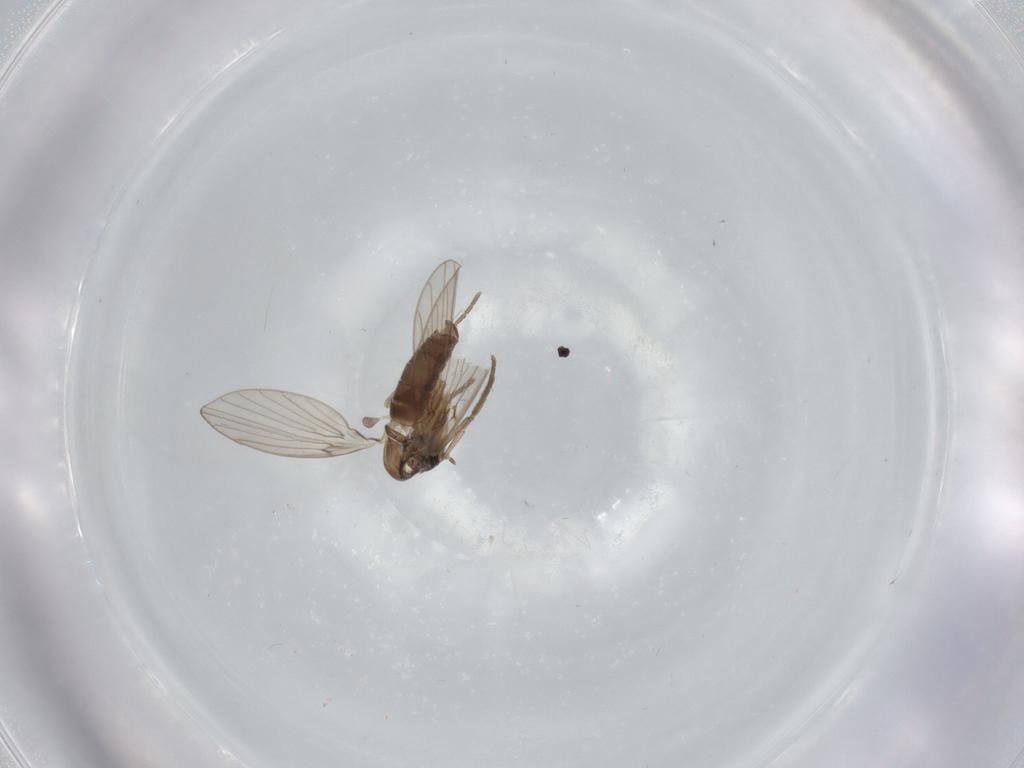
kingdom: Animalia
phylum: Arthropoda
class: Insecta
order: Diptera
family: Psychodidae
